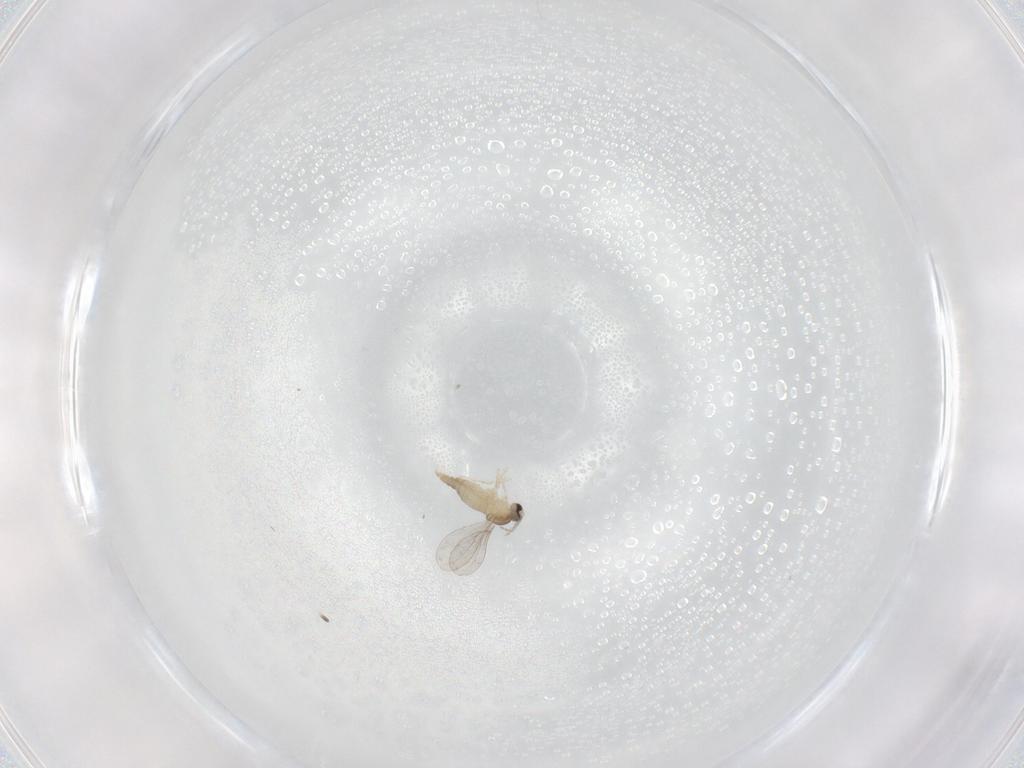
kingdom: Animalia
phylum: Arthropoda
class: Insecta
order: Diptera
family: Cecidomyiidae
